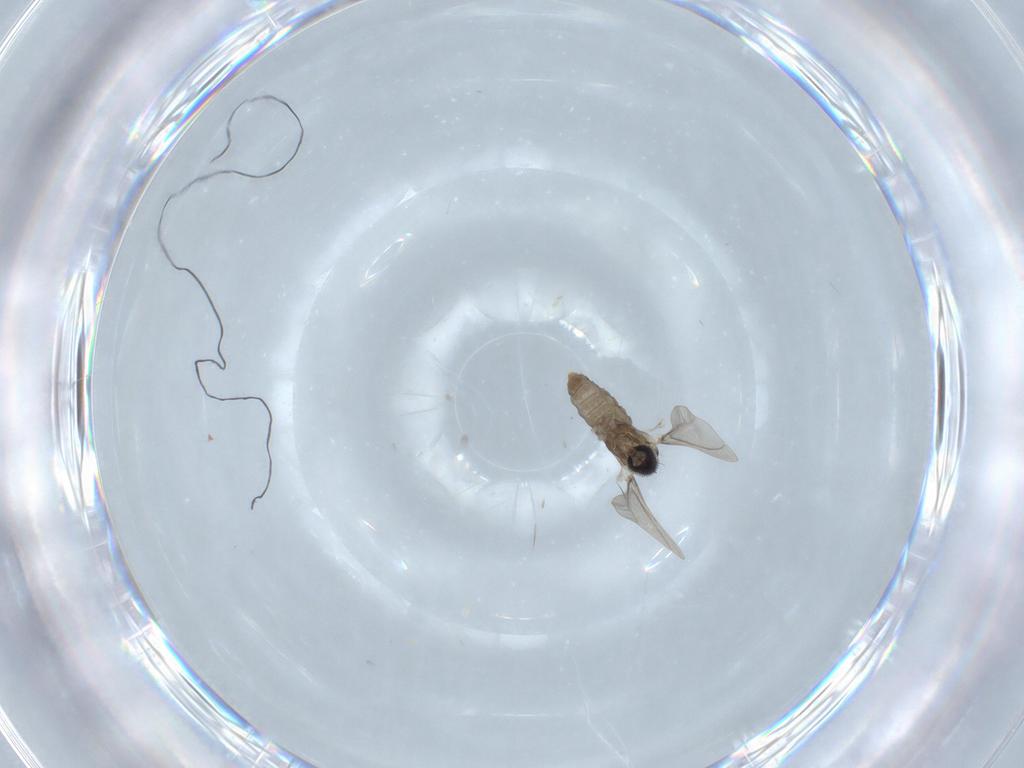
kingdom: Animalia
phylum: Arthropoda
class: Insecta
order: Diptera
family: Cecidomyiidae
